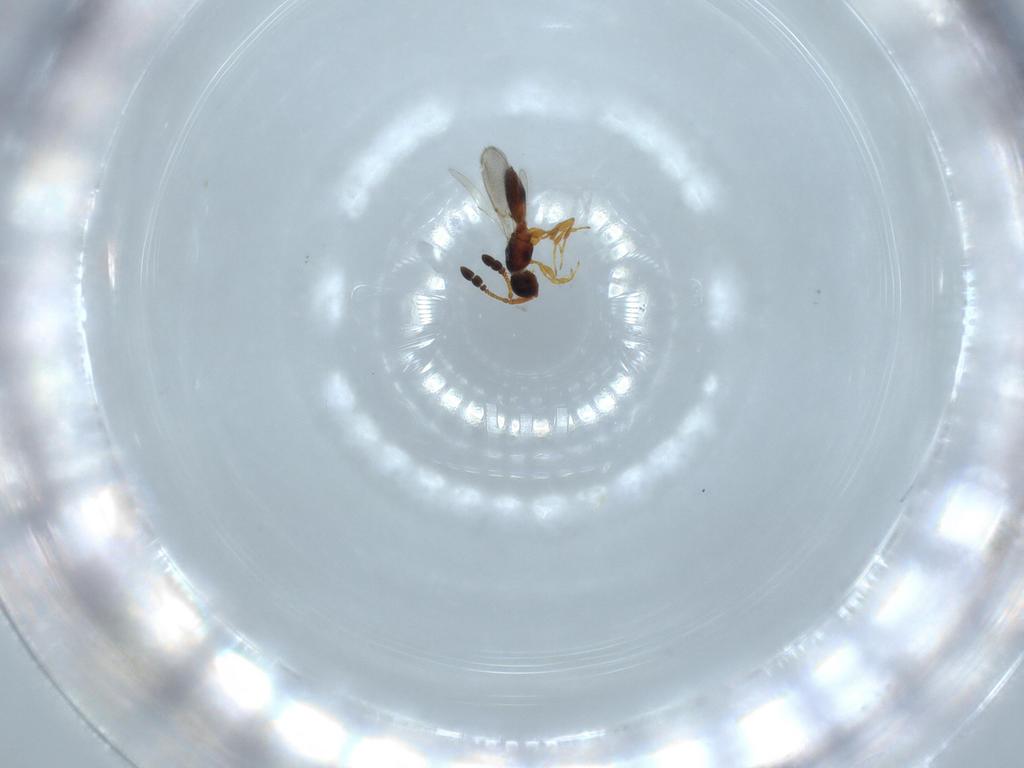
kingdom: Animalia
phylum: Arthropoda
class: Insecta
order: Hymenoptera
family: Diapriidae
